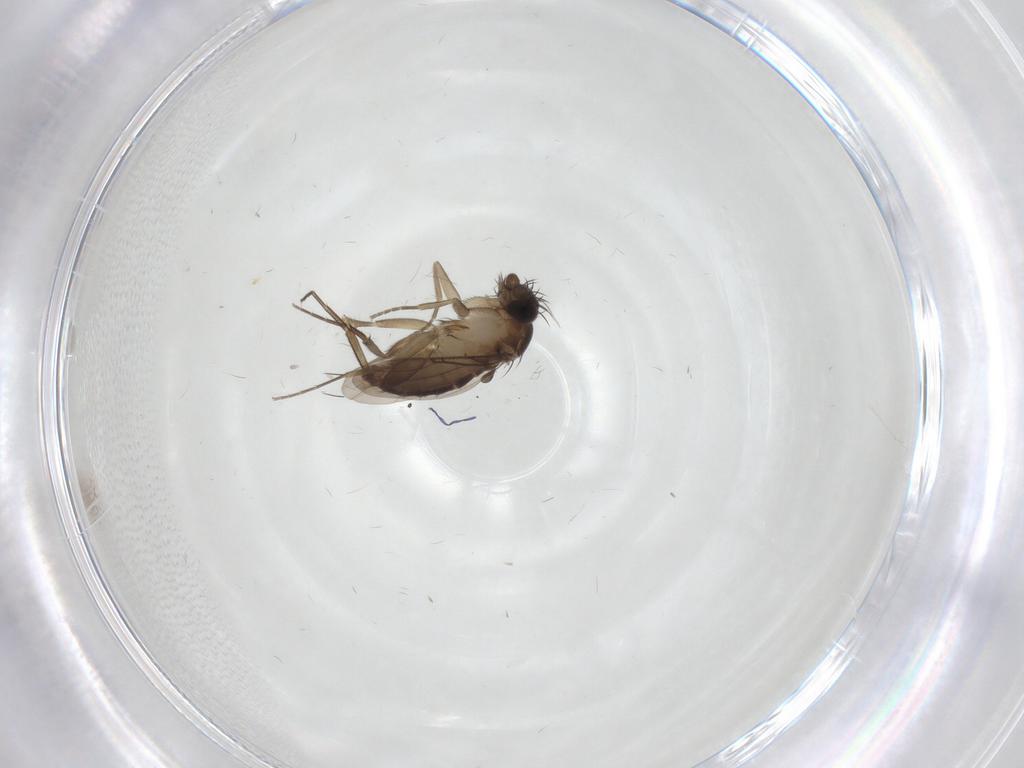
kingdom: Animalia
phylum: Arthropoda
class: Insecta
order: Diptera
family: Phoridae
